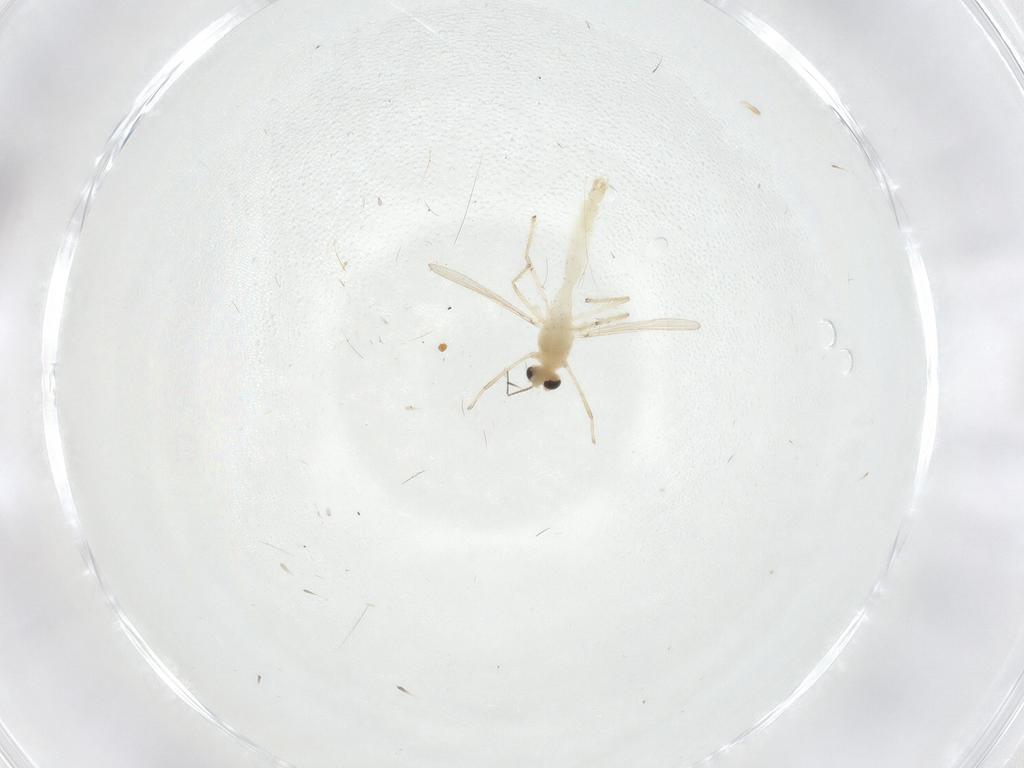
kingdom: Animalia
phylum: Arthropoda
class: Insecta
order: Diptera
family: Chironomidae
